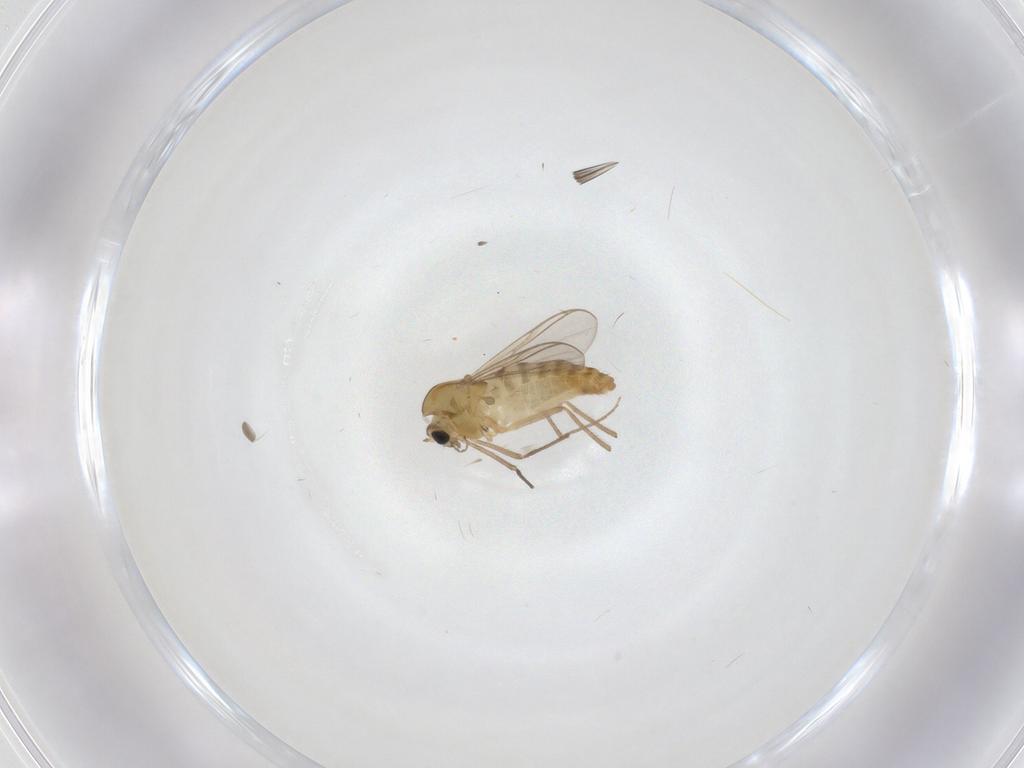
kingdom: Animalia
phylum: Arthropoda
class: Insecta
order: Diptera
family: Chironomidae
